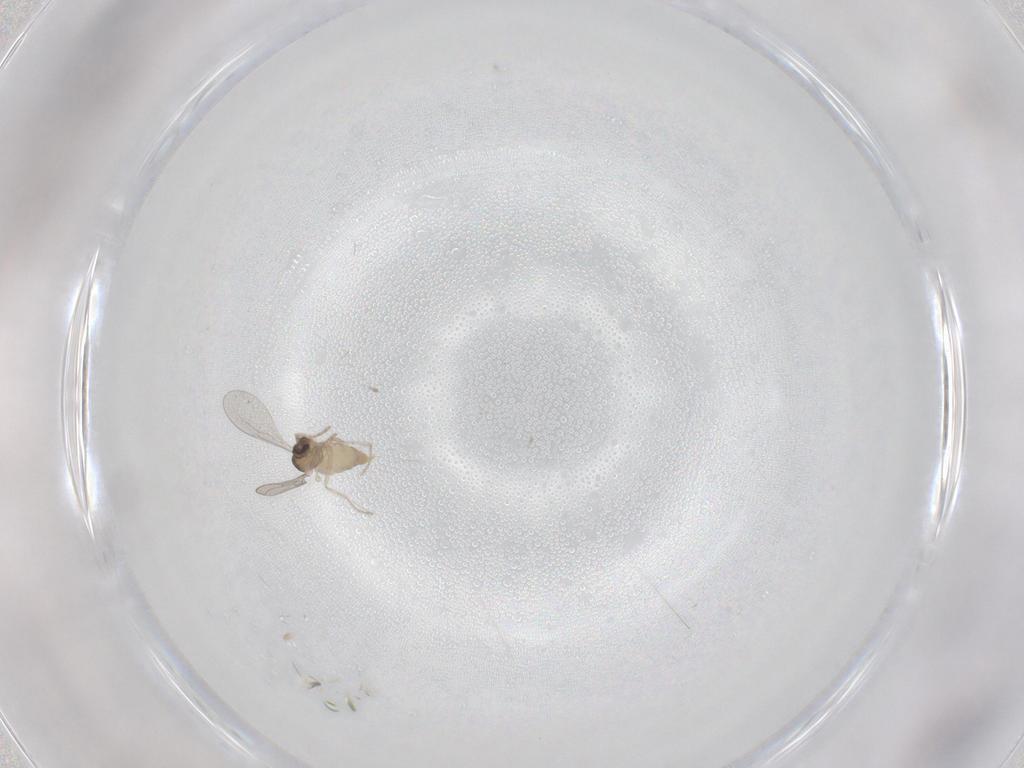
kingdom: Animalia
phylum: Arthropoda
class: Insecta
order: Diptera
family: Cecidomyiidae
